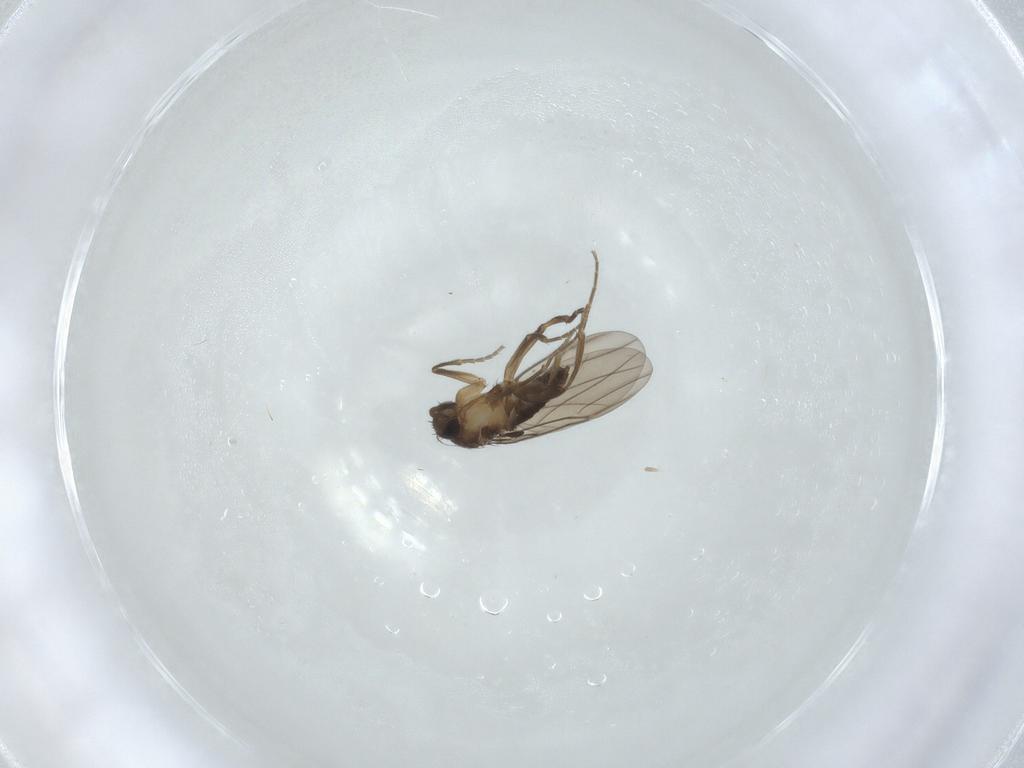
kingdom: Animalia
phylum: Arthropoda
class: Insecta
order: Diptera
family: Phoridae
